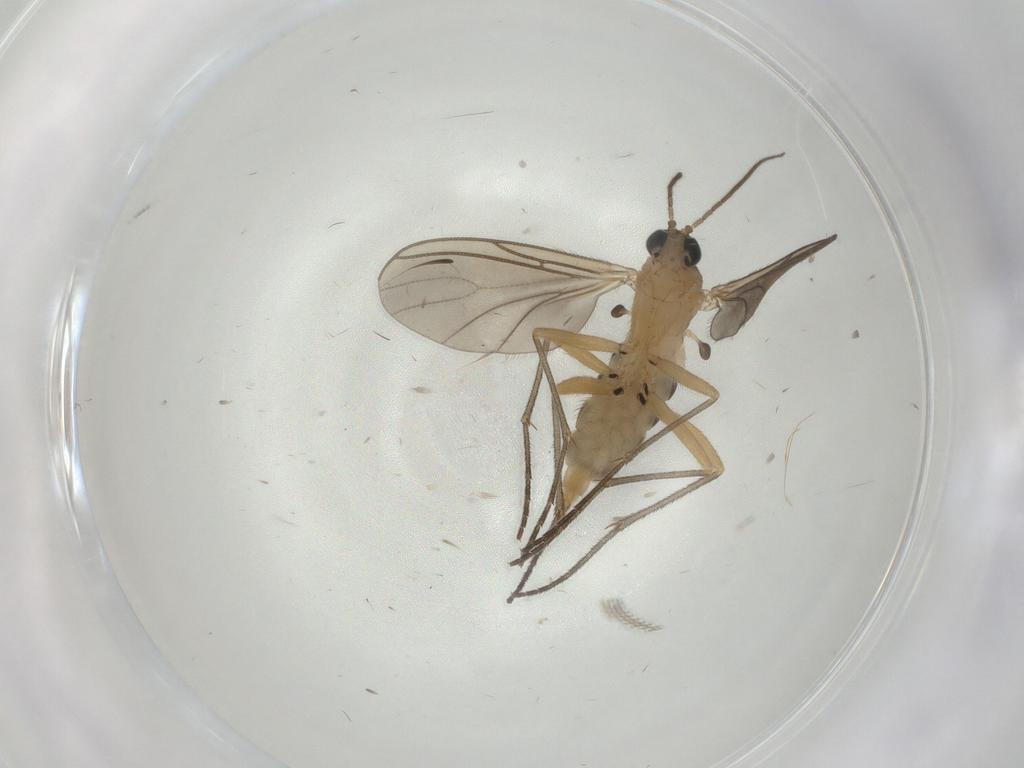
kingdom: Animalia
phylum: Arthropoda
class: Insecta
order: Diptera
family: Sciaridae
